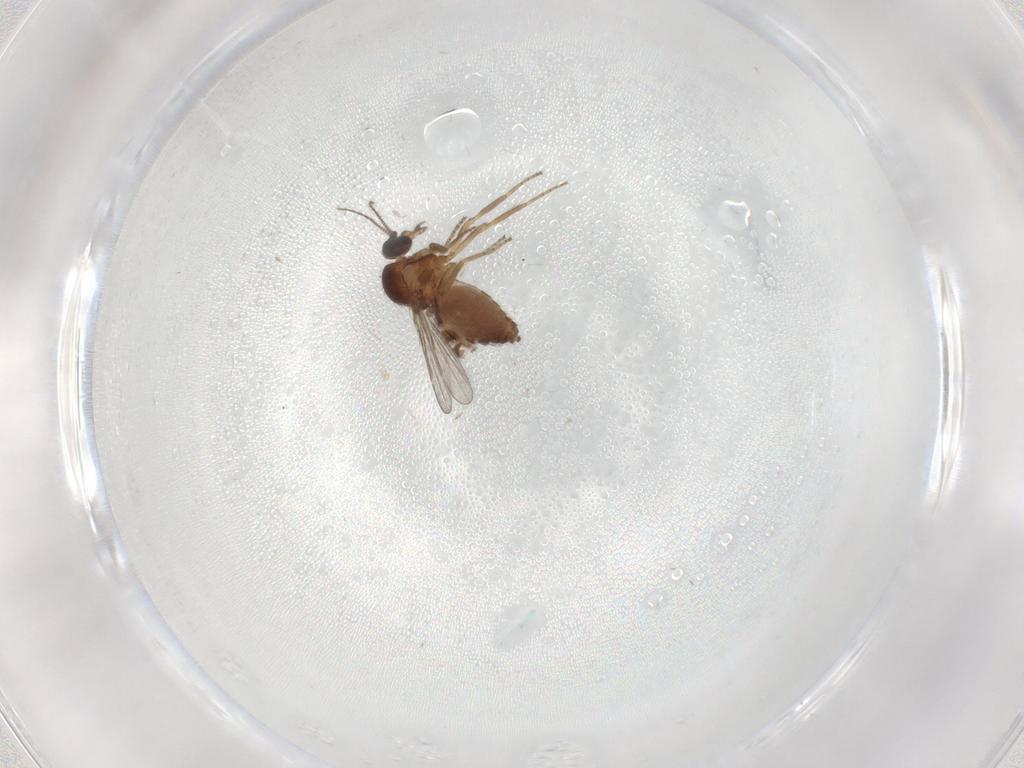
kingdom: Animalia
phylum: Arthropoda
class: Insecta
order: Diptera
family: Ceratopogonidae
